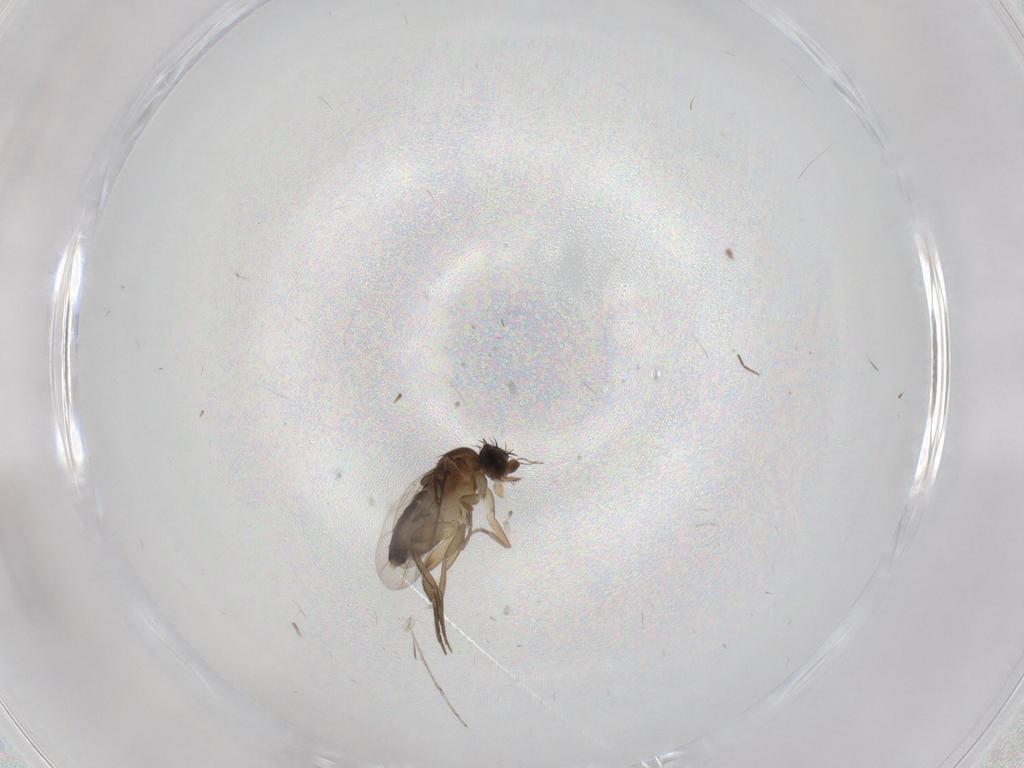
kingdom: Animalia
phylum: Arthropoda
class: Insecta
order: Diptera
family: Phoridae
